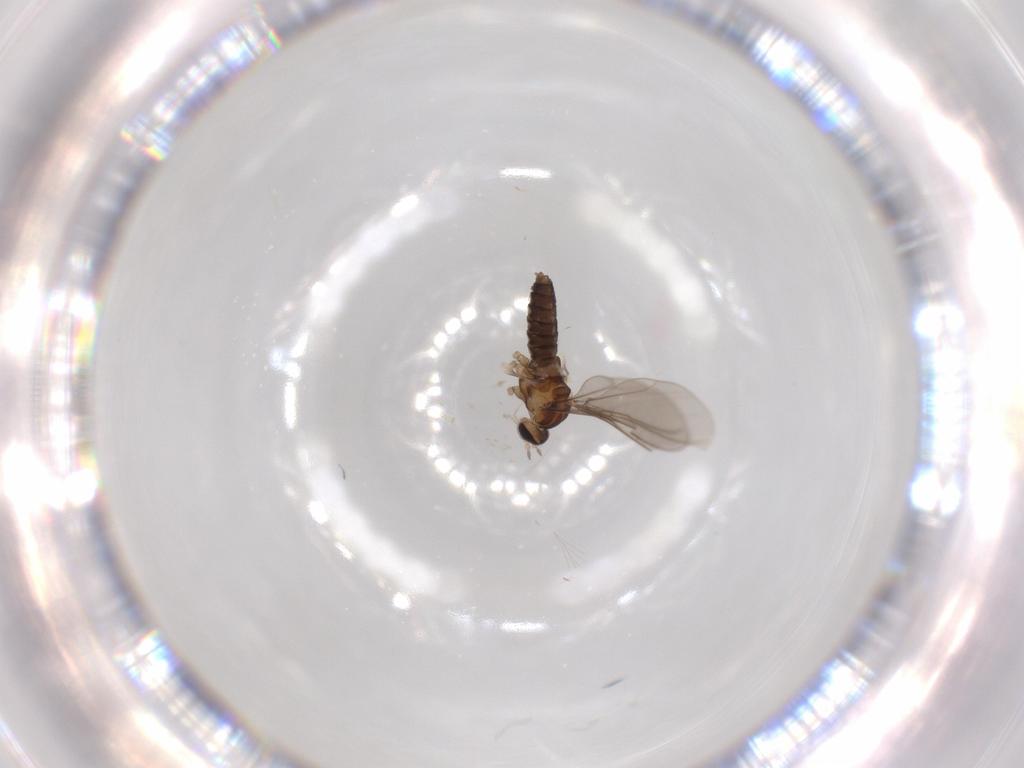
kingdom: Animalia
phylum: Arthropoda
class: Insecta
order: Diptera
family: Cecidomyiidae
